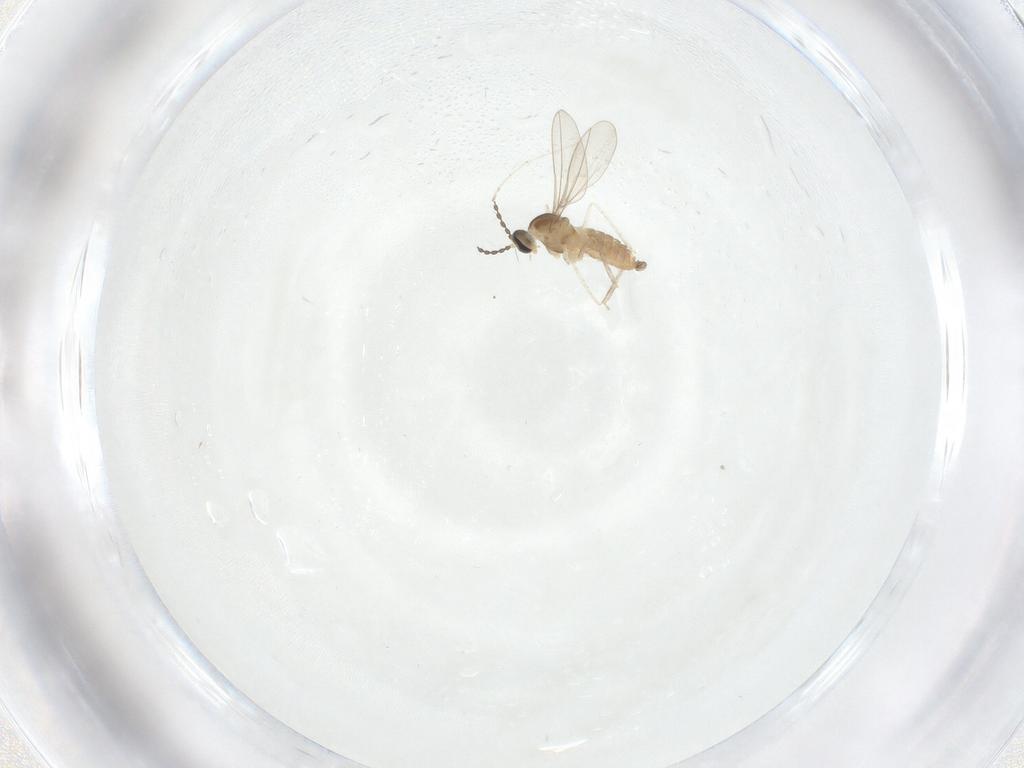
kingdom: Animalia
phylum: Arthropoda
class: Insecta
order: Diptera
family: Cecidomyiidae
